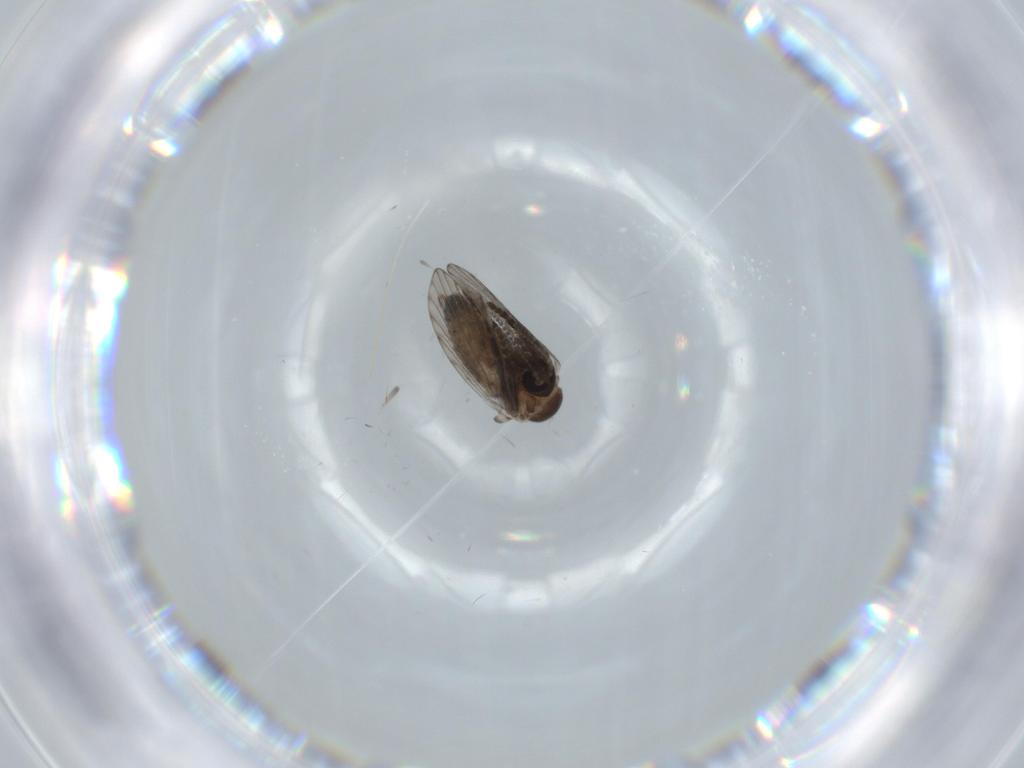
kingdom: Animalia
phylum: Arthropoda
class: Insecta
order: Diptera
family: Psychodidae
